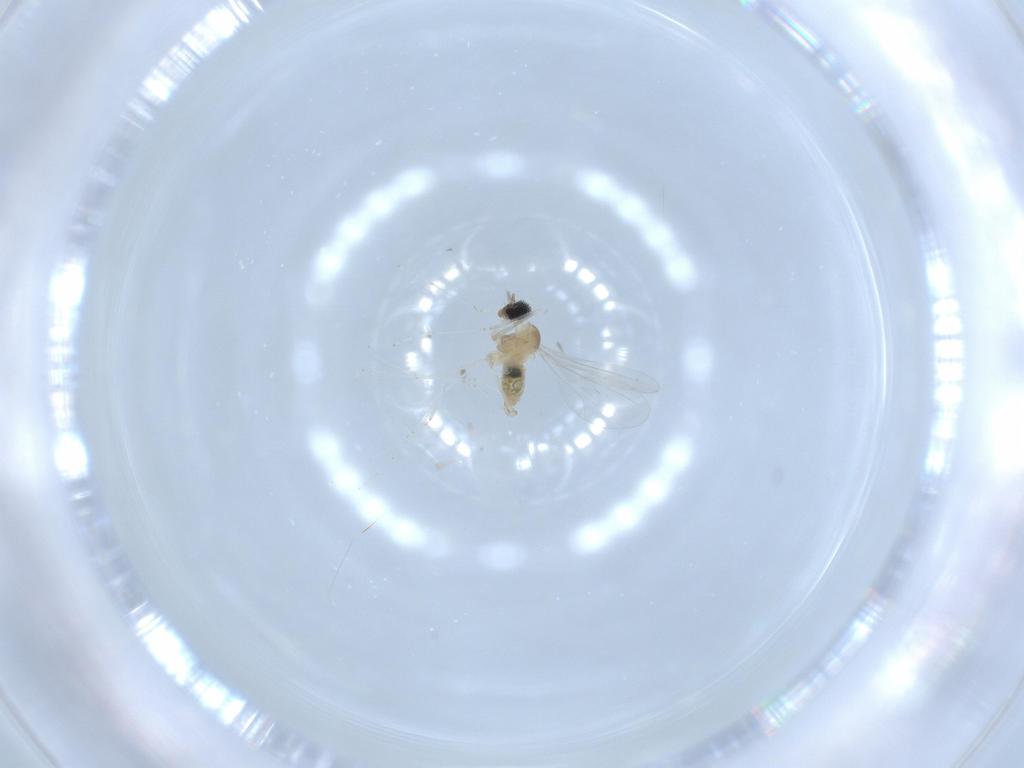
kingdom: Animalia
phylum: Arthropoda
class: Insecta
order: Diptera
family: Cecidomyiidae
